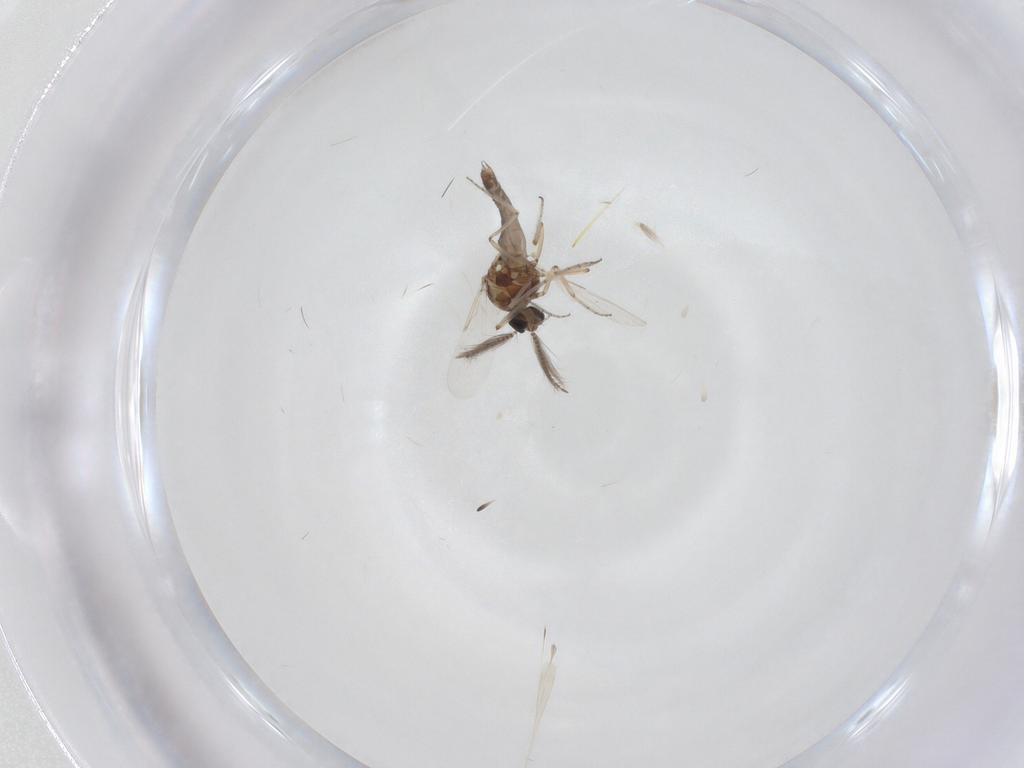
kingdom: Animalia
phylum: Arthropoda
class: Insecta
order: Diptera
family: Ceratopogonidae
